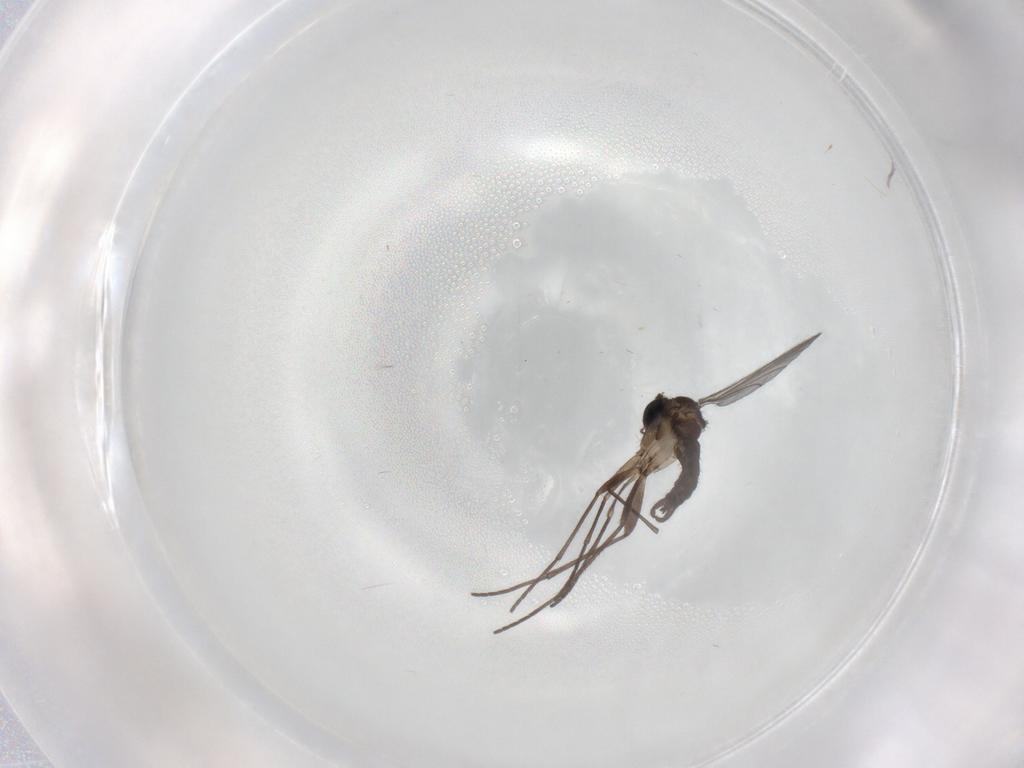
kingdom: Animalia
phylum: Arthropoda
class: Insecta
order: Diptera
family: Sciaridae
